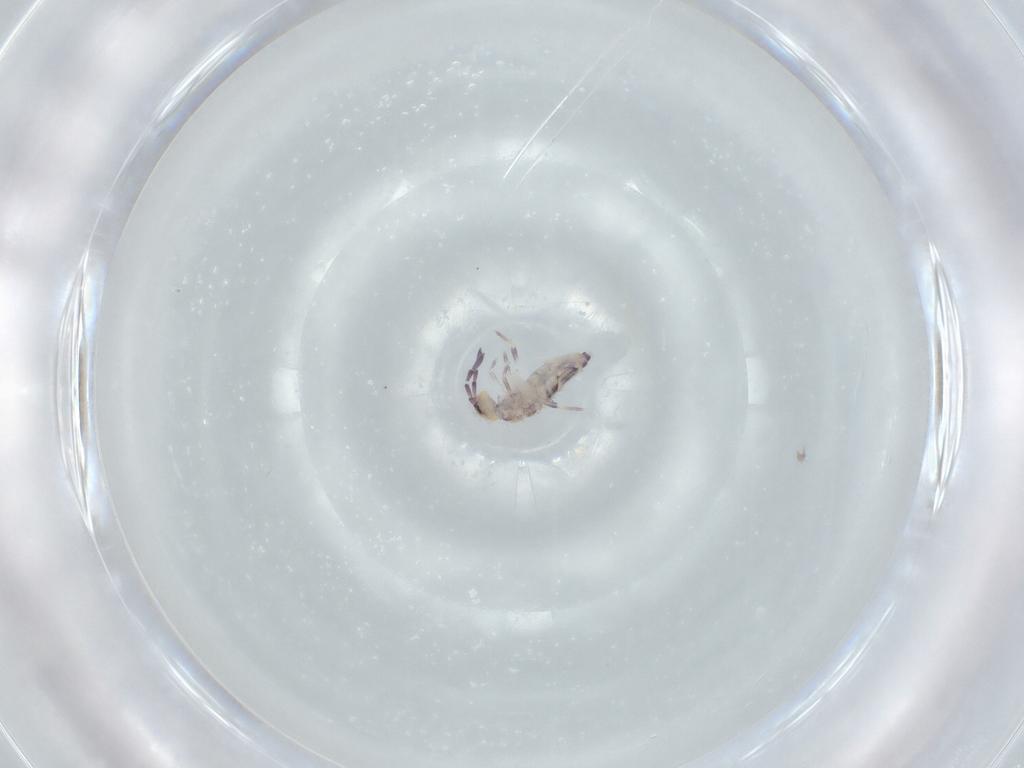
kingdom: Animalia
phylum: Arthropoda
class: Collembola
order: Entomobryomorpha
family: Entomobryidae
